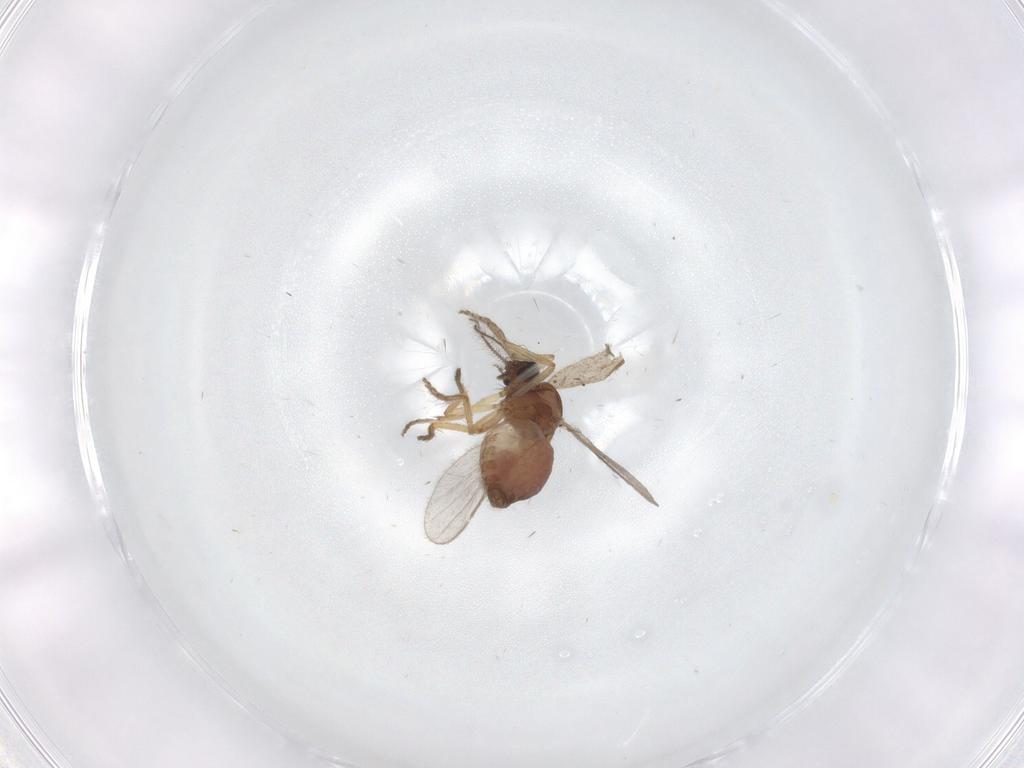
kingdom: Animalia
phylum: Arthropoda
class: Insecta
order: Diptera
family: Ceratopogonidae
